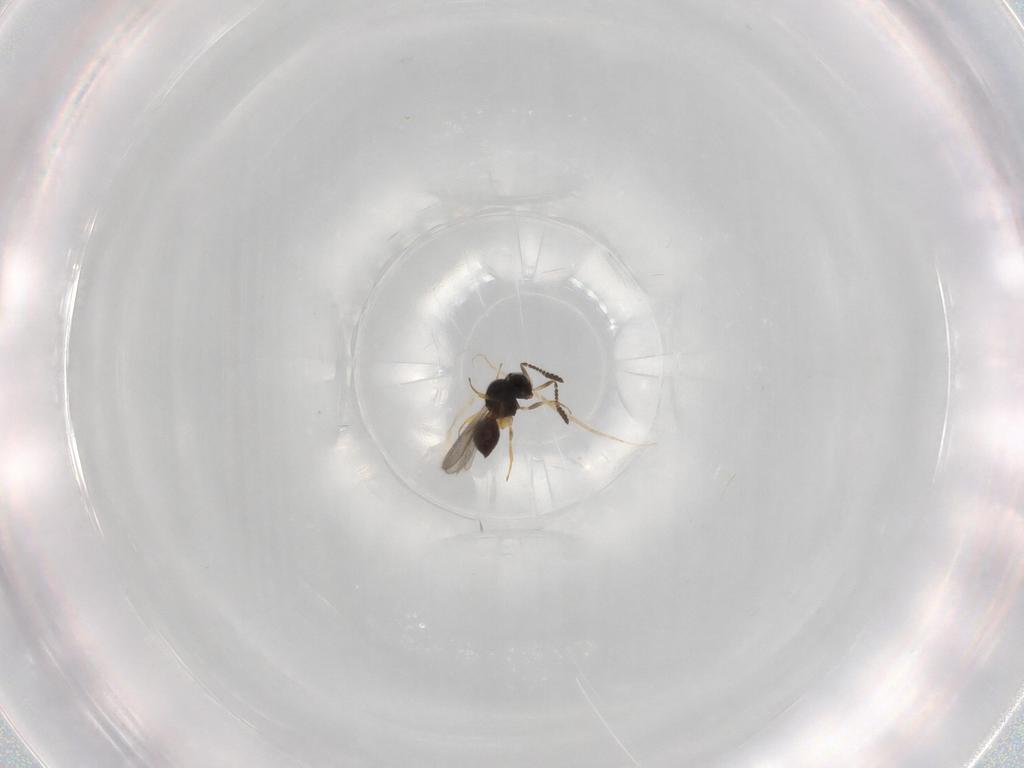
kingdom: Animalia
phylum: Arthropoda
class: Insecta
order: Hymenoptera
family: Scelionidae
